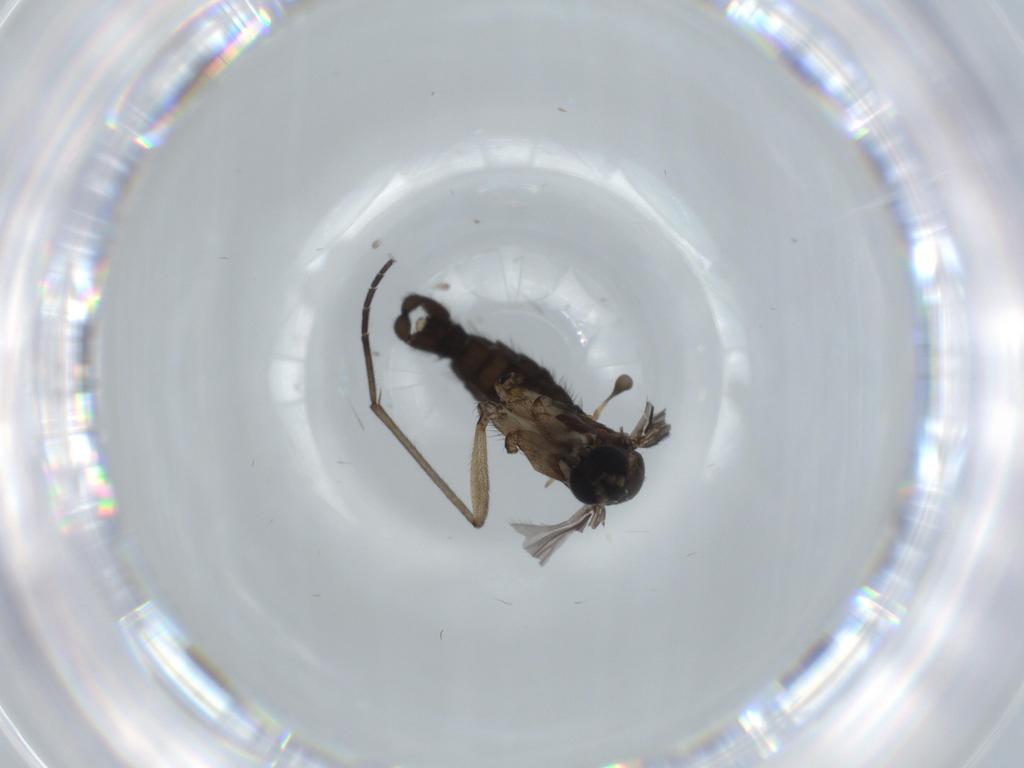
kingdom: Animalia
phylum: Arthropoda
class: Insecta
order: Diptera
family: Sciaridae
